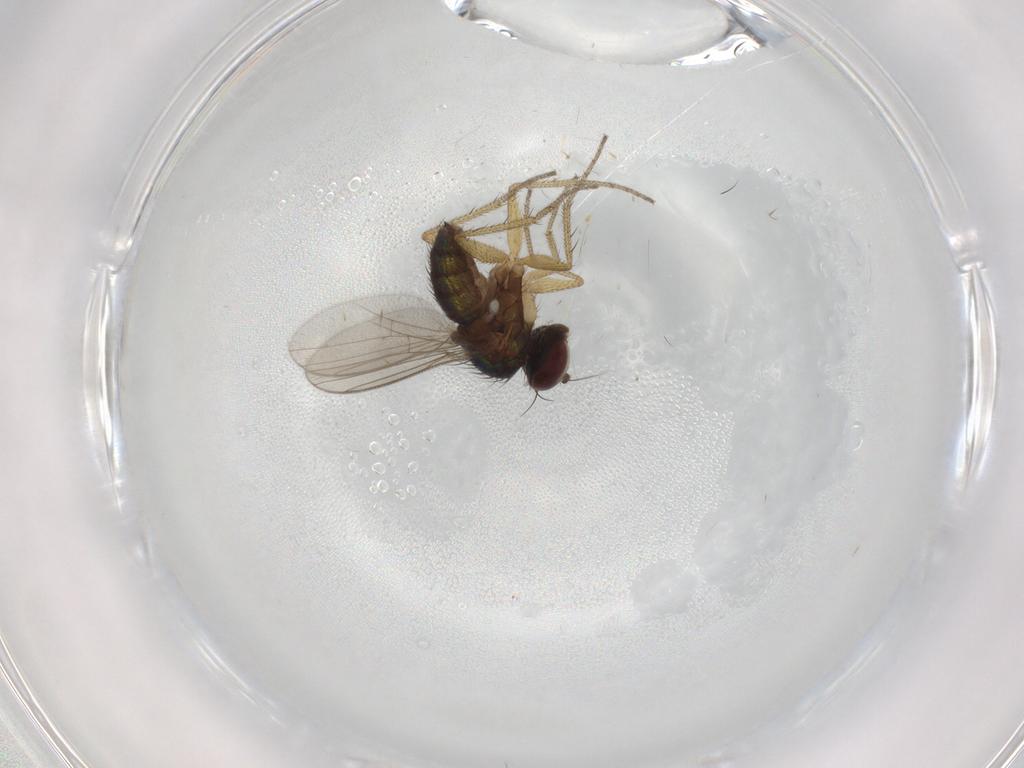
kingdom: Animalia
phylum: Arthropoda
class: Insecta
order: Diptera
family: Dolichopodidae
